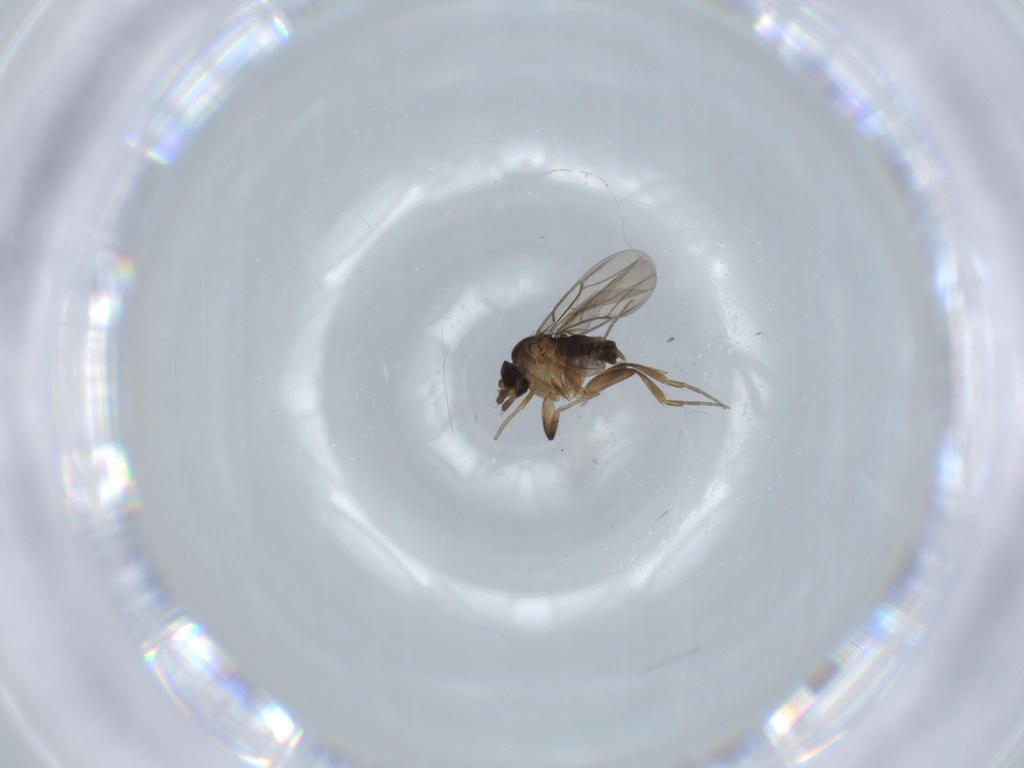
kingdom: Animalia
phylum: Arthropoda
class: Insecta
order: Diptera
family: Phoridae
